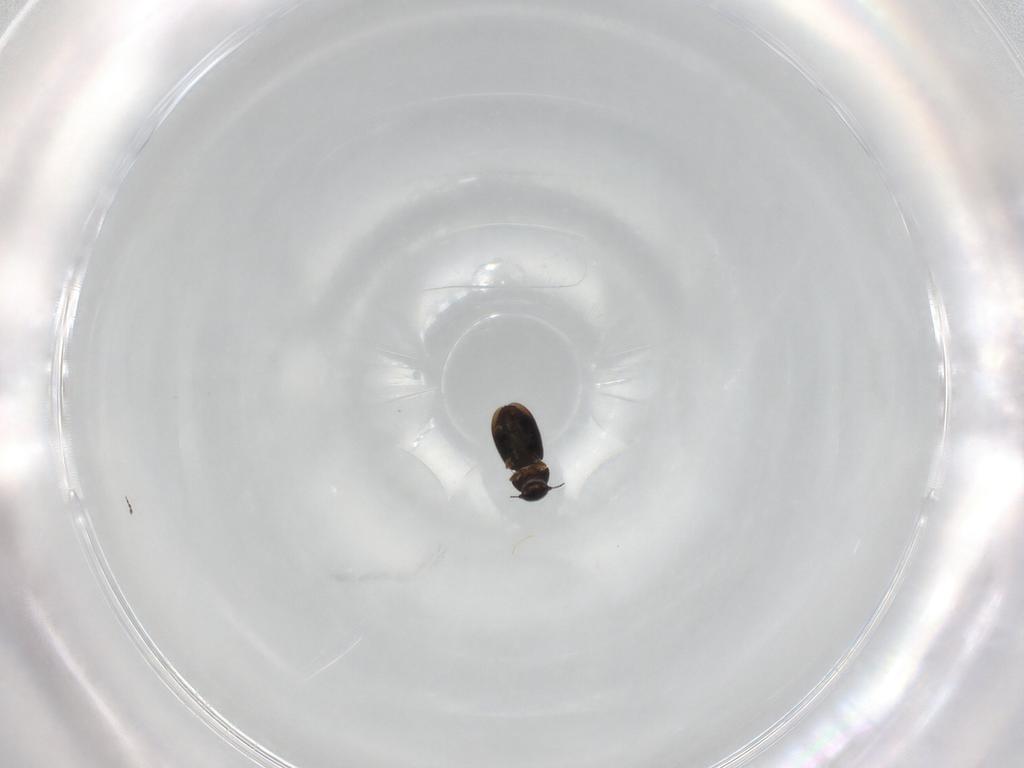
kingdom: Animalia
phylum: Arthropoda
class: Insecta
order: Coleoptera
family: Ptiliidae
